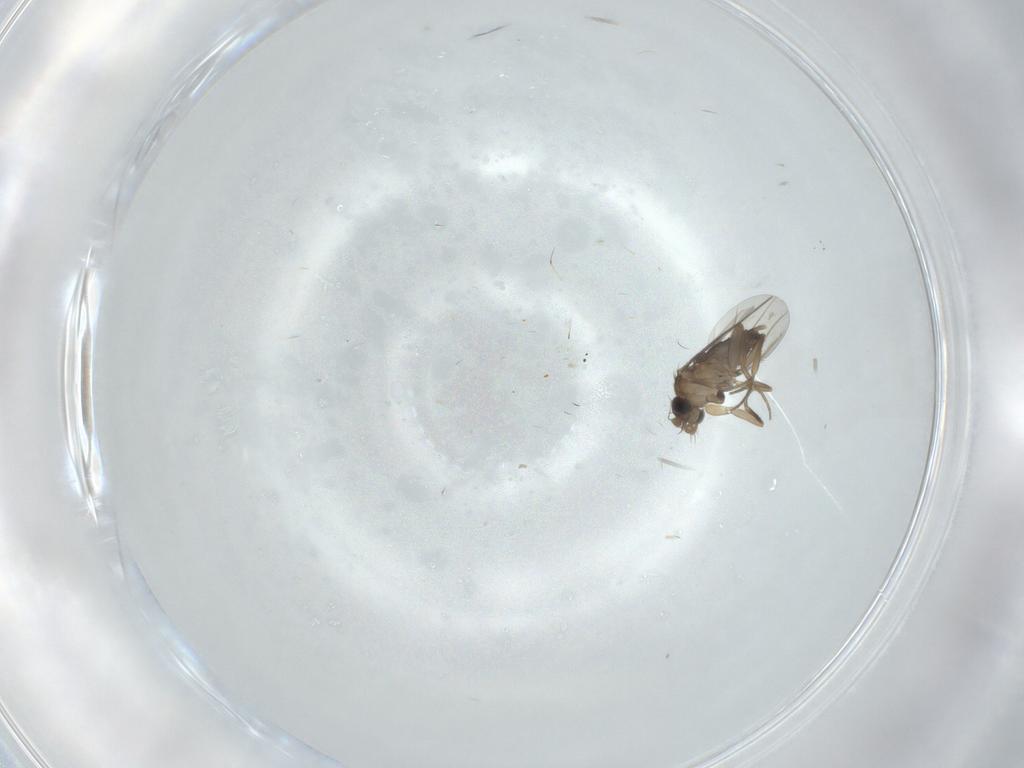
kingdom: Animalia
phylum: Arthropoda
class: Insecta
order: Diptera
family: Phoridae
